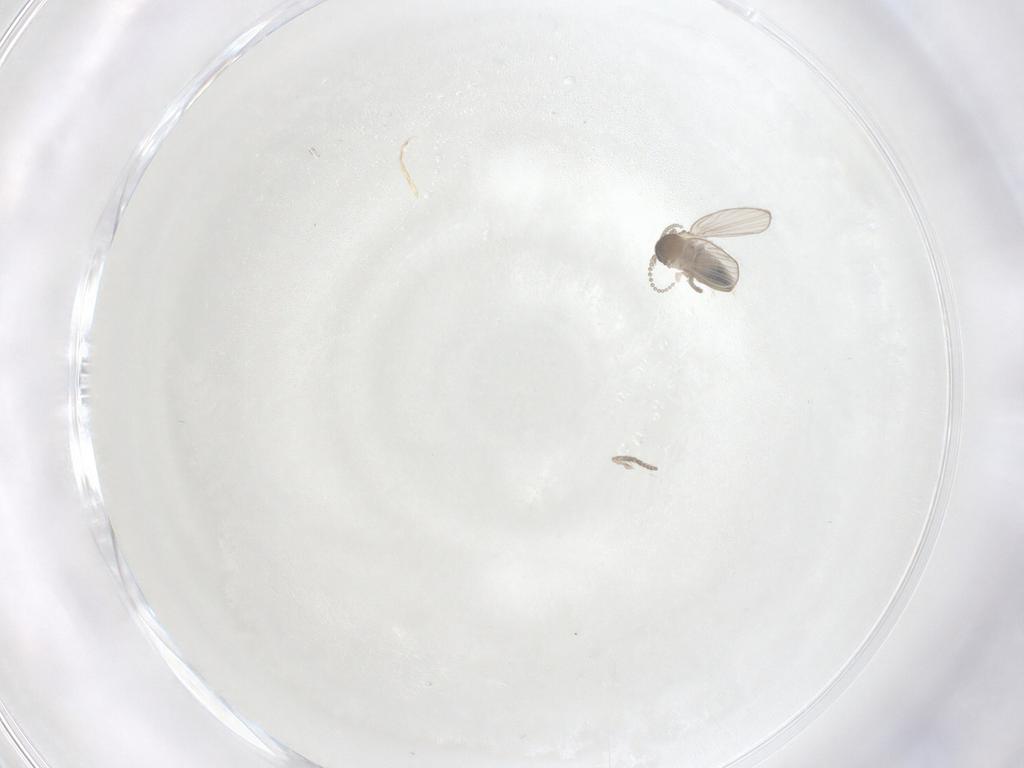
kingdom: Animalia
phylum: Arthropoda
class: Insecta
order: Diptera
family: Psychodidae
